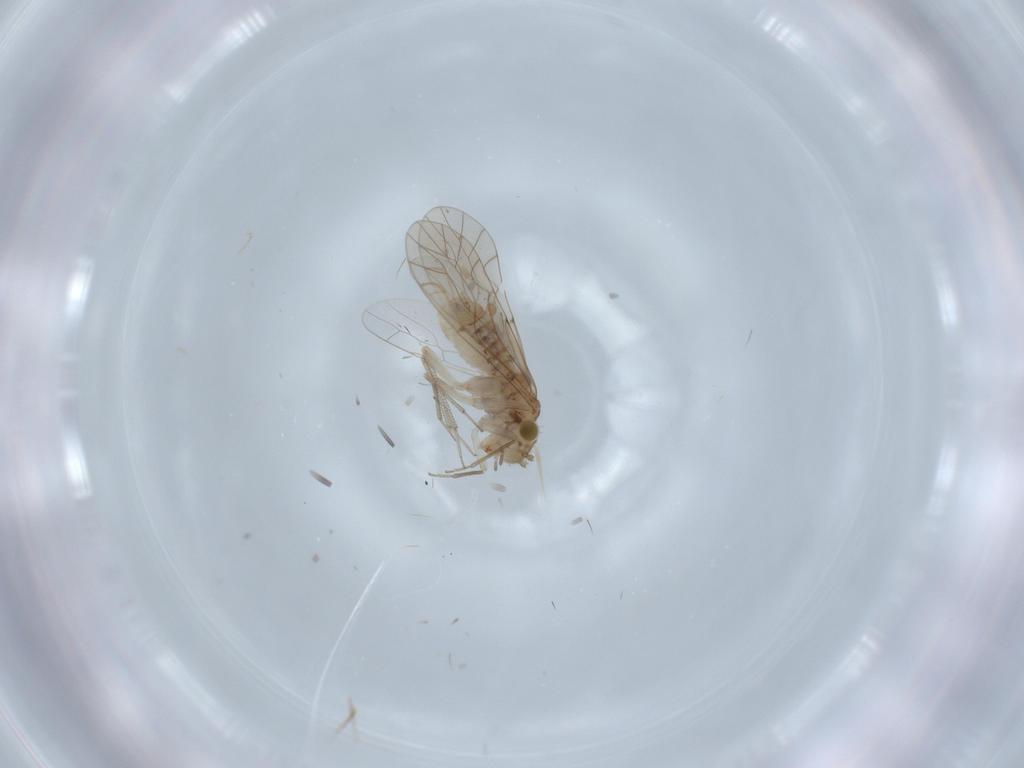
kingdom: Animalia
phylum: Arthropoda
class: Insecta
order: Psocodea
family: Lachesillidae
